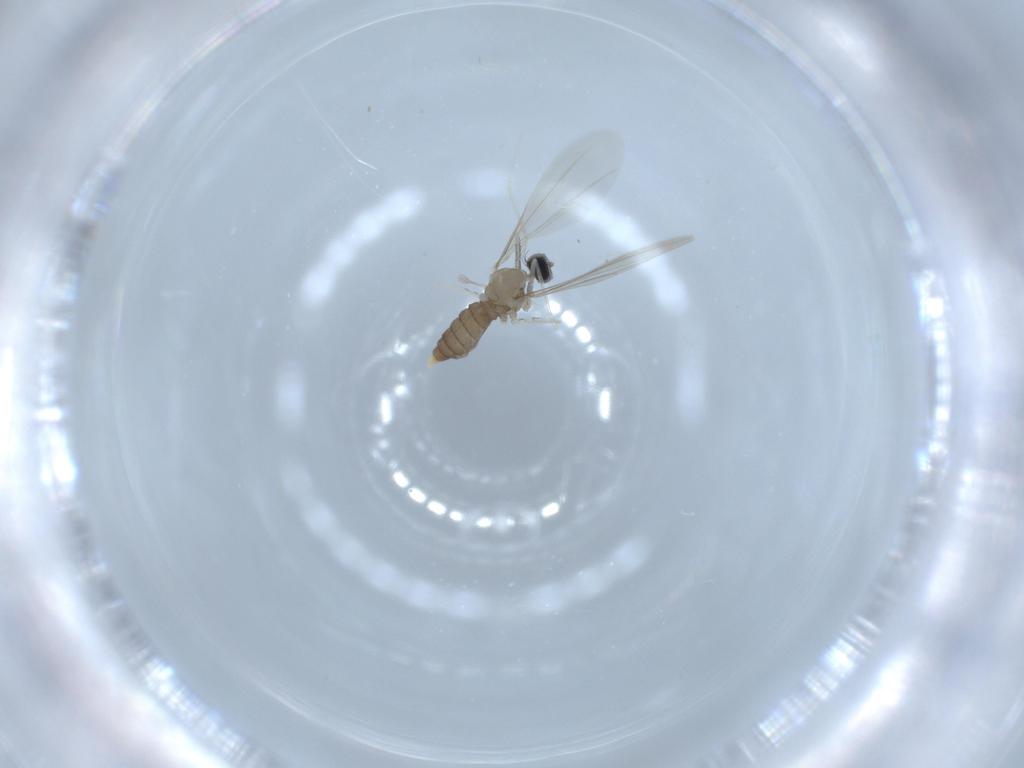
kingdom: Animalia
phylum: Arthropoda
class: Insecta
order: Diptera
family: Cecidomyiidae
